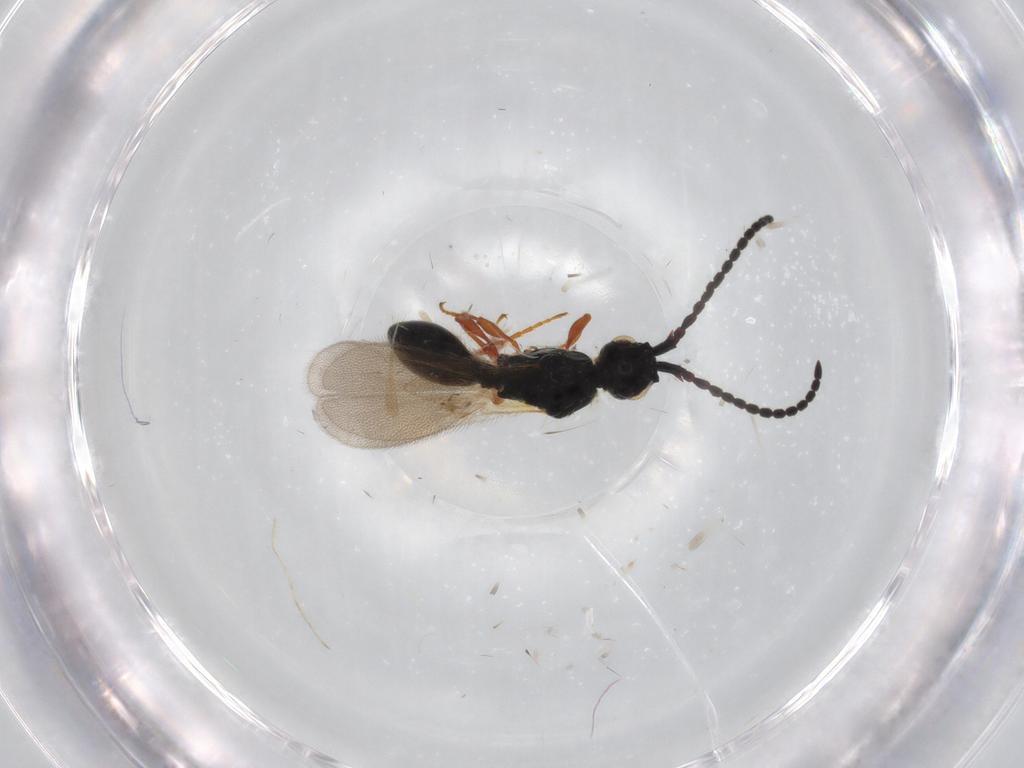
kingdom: Animalia
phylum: Arthropoda
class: Insecta
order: Hymenoptera
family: Diapriidae
